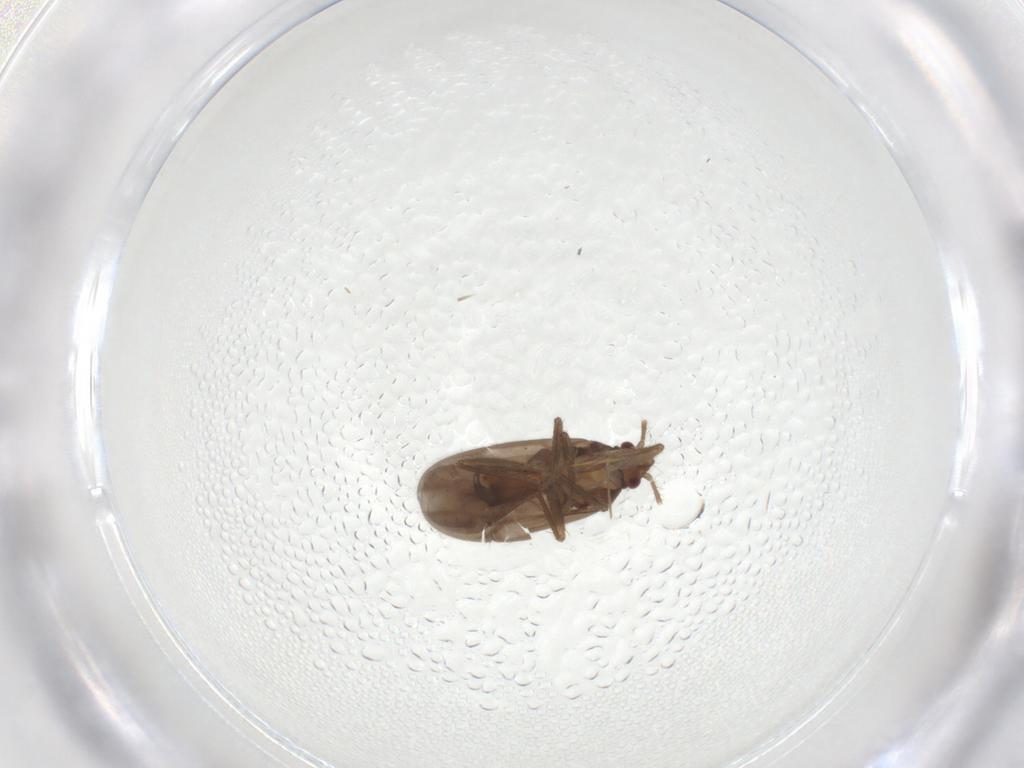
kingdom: Animalia
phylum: Arthropoda
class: Insecta
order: Hemiptera
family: Ceratocombidae
